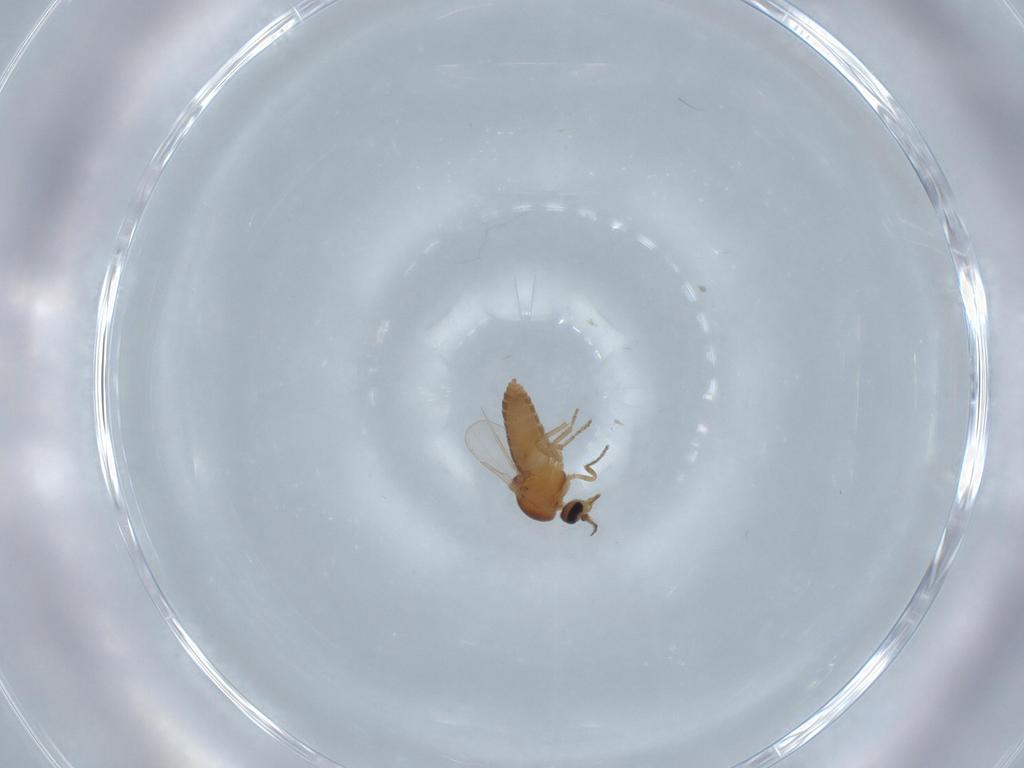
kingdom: Animalia
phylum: Arthropoda
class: Insecta
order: Diptera
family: Ceratopogonidae
